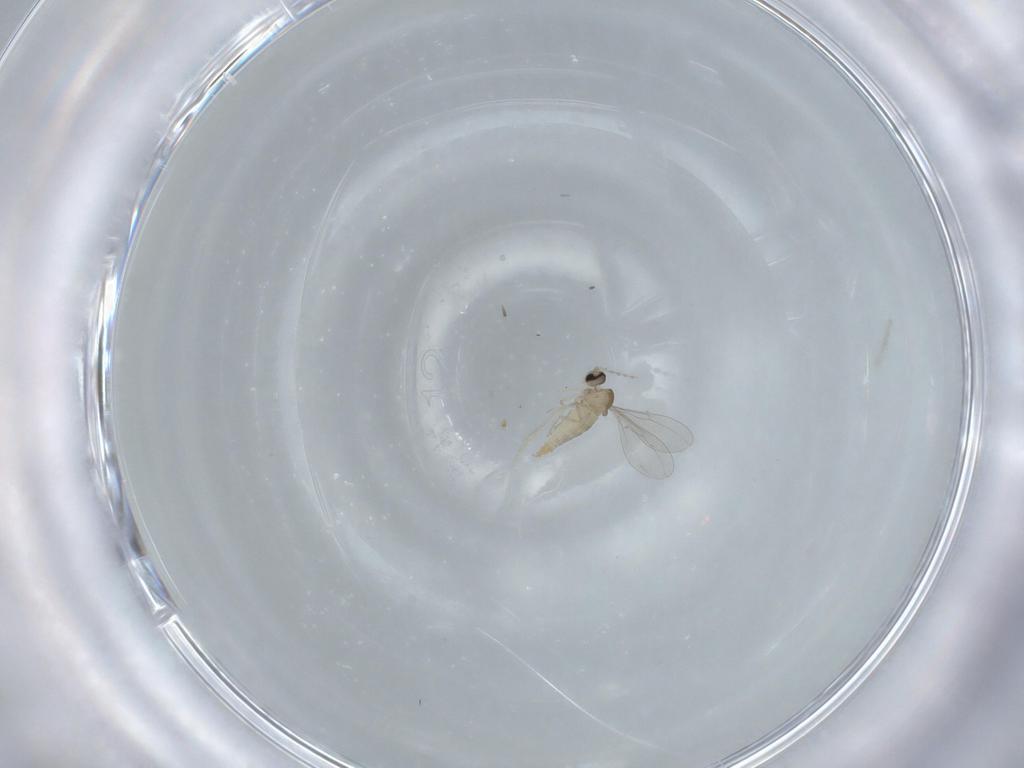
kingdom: Animalia
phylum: Arthropoda
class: Insecta
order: Diptera
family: Cecidomyiidae
